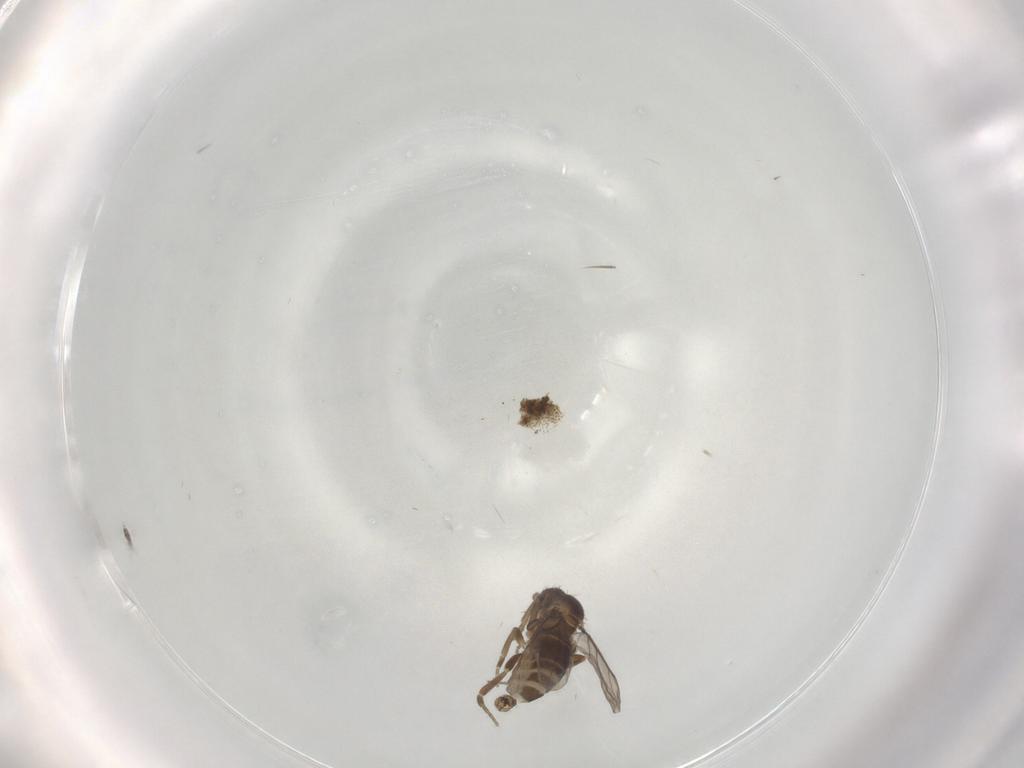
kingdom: Animalia
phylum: Arthropoda
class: Insecta
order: Diptera
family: Phoridae
